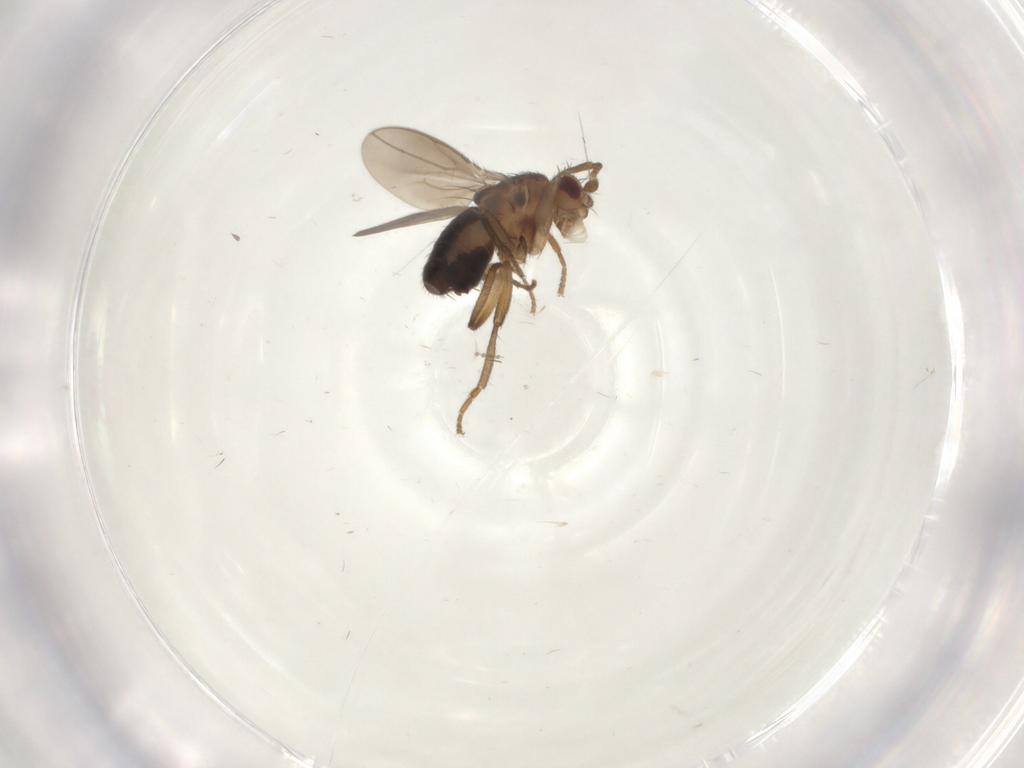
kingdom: Animalia
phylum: Arthropoda
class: Insecta
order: Diptera
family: Sphaeroceridae
